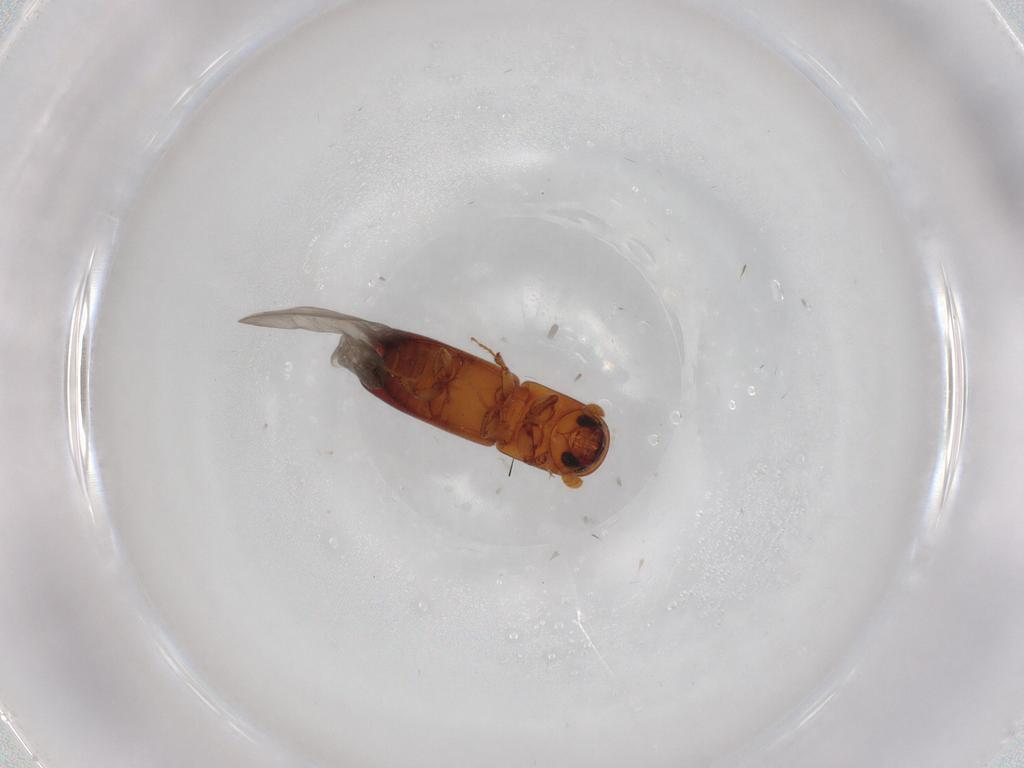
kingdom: Animalia
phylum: Arthropoda
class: Insecta
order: Coleoptera
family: Curculionidae
